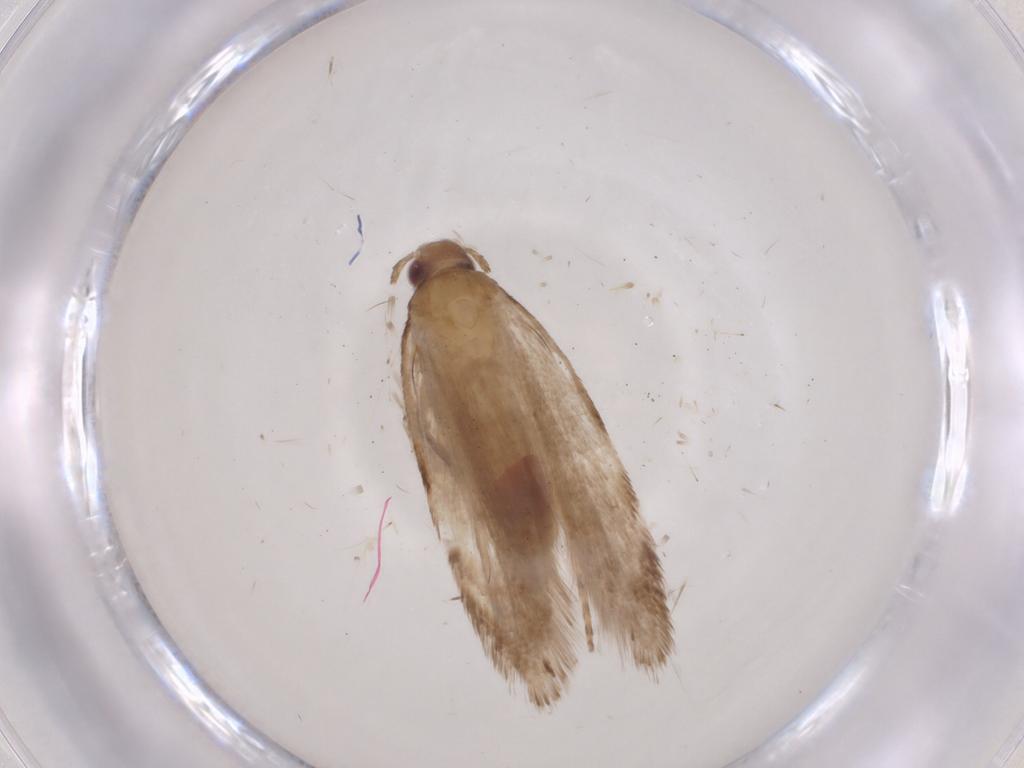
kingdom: Animalia
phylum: Arthropoda
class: Insecta
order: Lepidoptera
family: Gelechiidae
